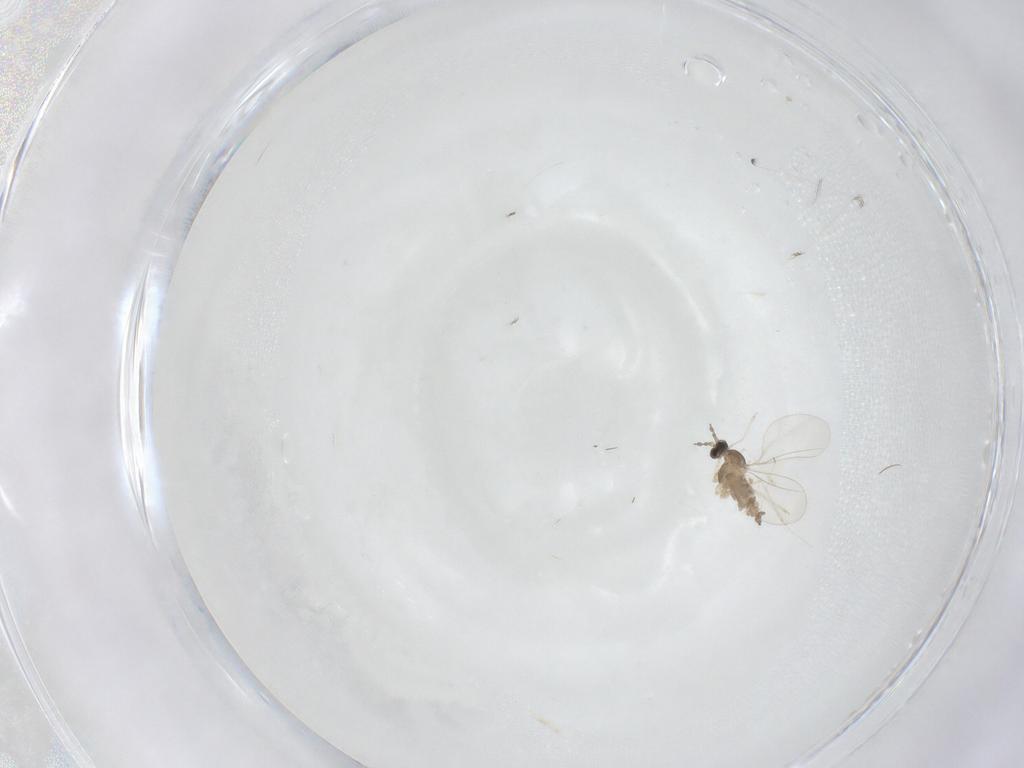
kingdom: Animalia
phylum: Arthropoda
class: Insecta
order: Diptera
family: Cecidomyiidae
